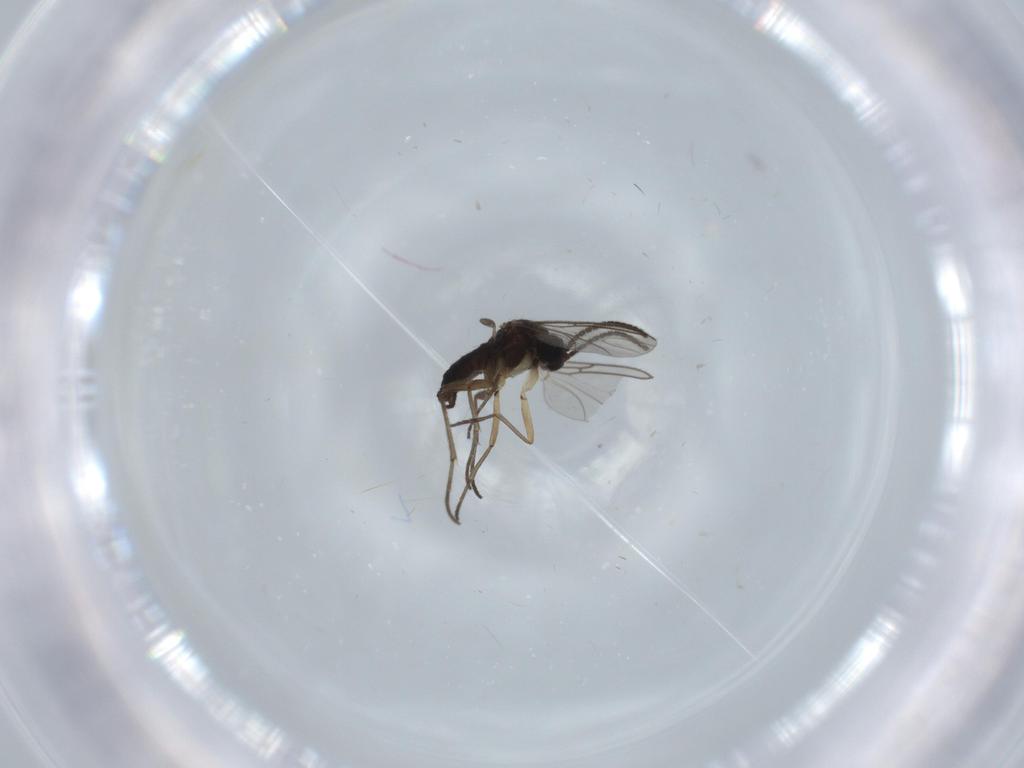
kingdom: Animalia
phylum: Arthropoda
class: Insecta
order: Diptera
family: Sciaridae
